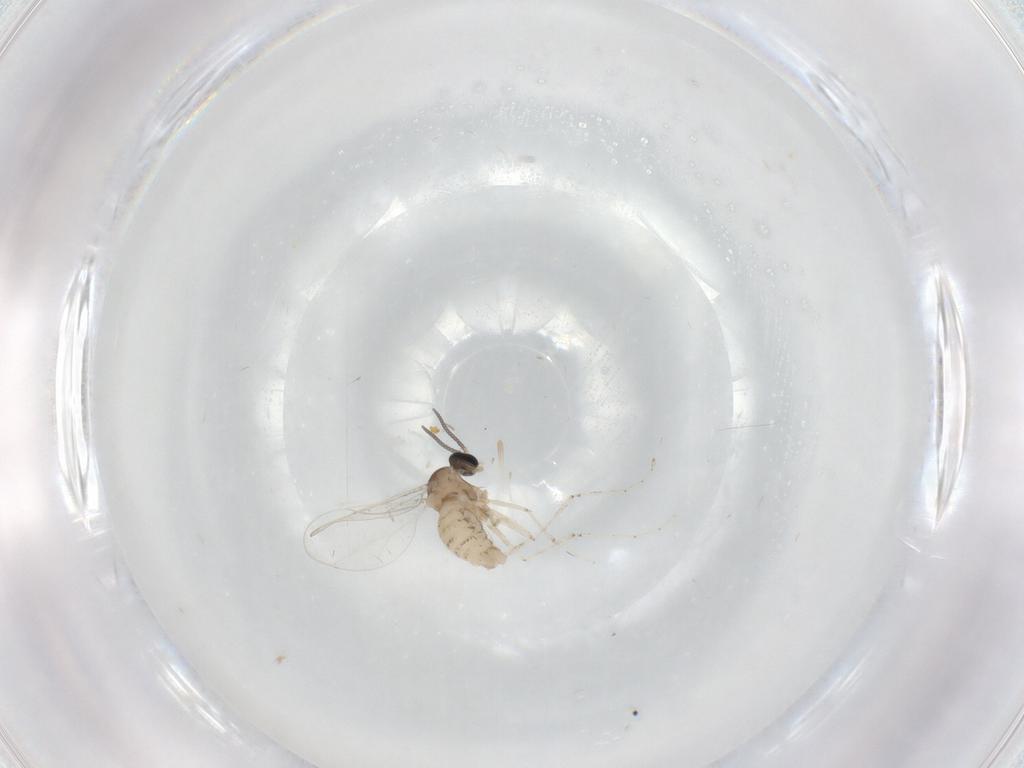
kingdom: Animalia
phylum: Arthropoda
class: Insecta
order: Diptera
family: Cecidomyiidae
